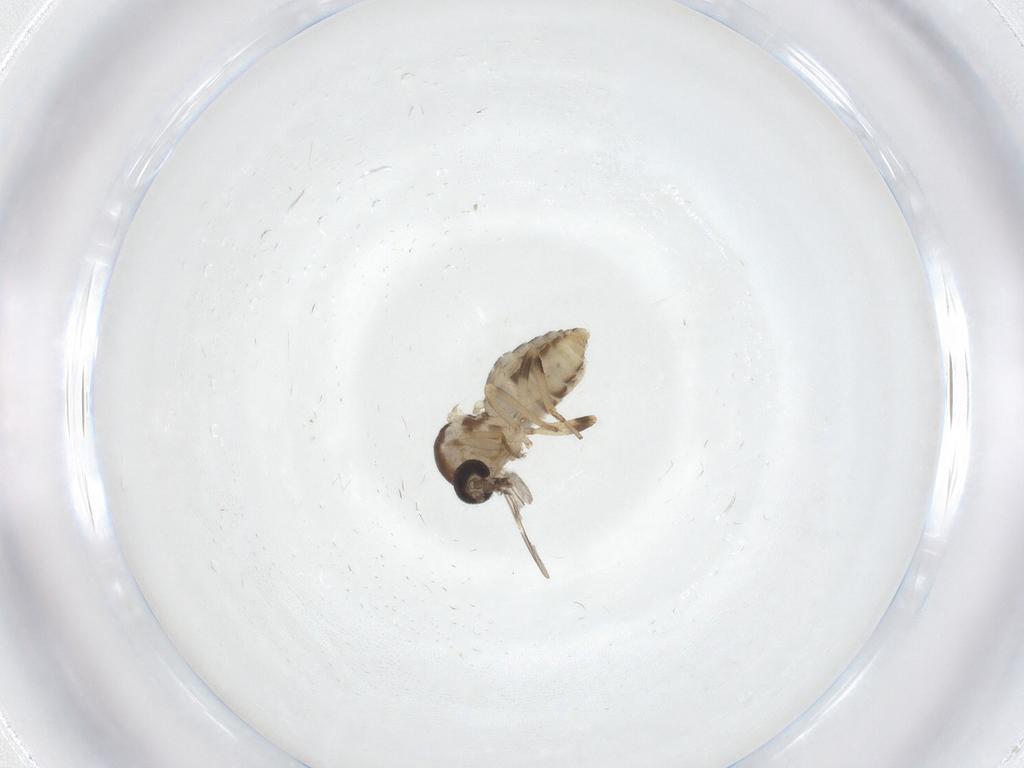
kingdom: Animalia
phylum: Arthropoda
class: Insecta
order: Diptera
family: Ceratopogonidae
